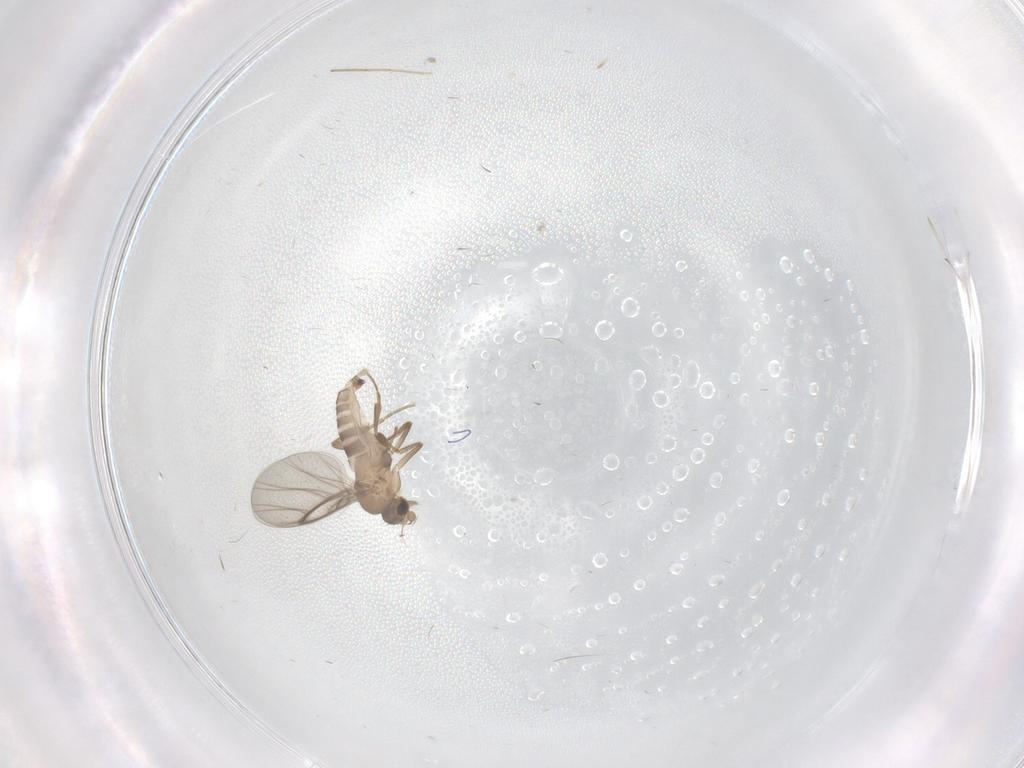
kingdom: Animalia
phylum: Arthropoda
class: Insecta
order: Diptera
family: Chironomidae
